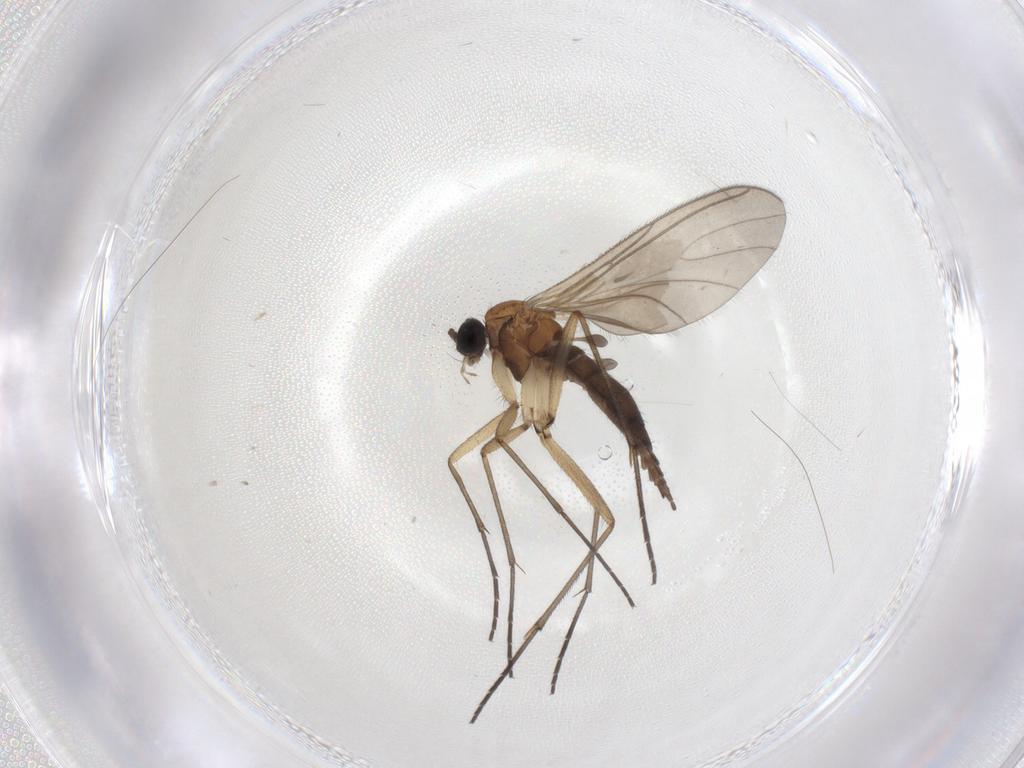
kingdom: Animalia
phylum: Arthropoda
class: Insecta
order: Diptera
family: Sciaridae
